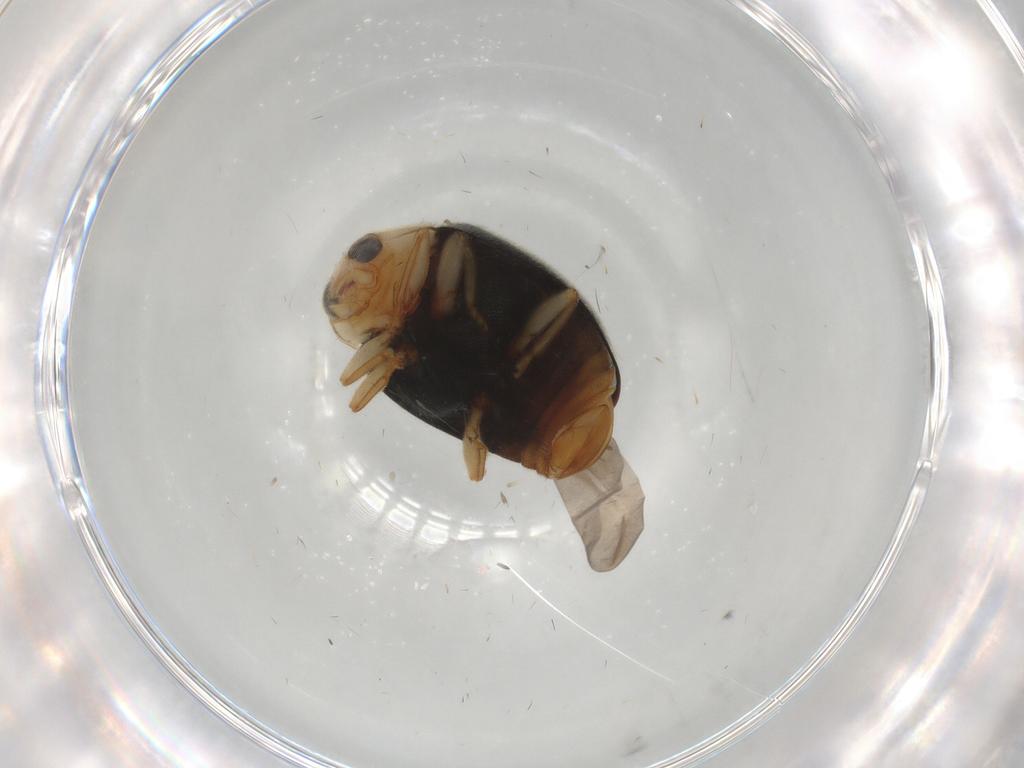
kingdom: Animalia
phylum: Arthropoda
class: Insecta
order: Coleoptera
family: Coccinellidae
